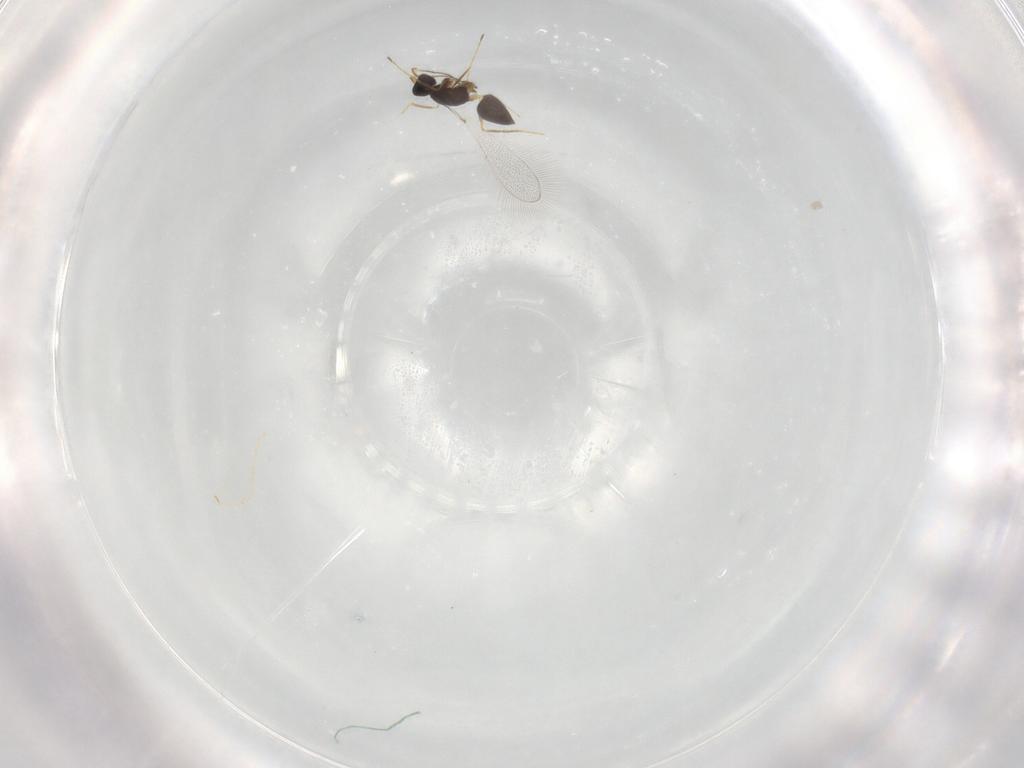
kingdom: Animalia
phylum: Arthropoda
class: Insecta
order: Hymenoptera
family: Mymaridae
